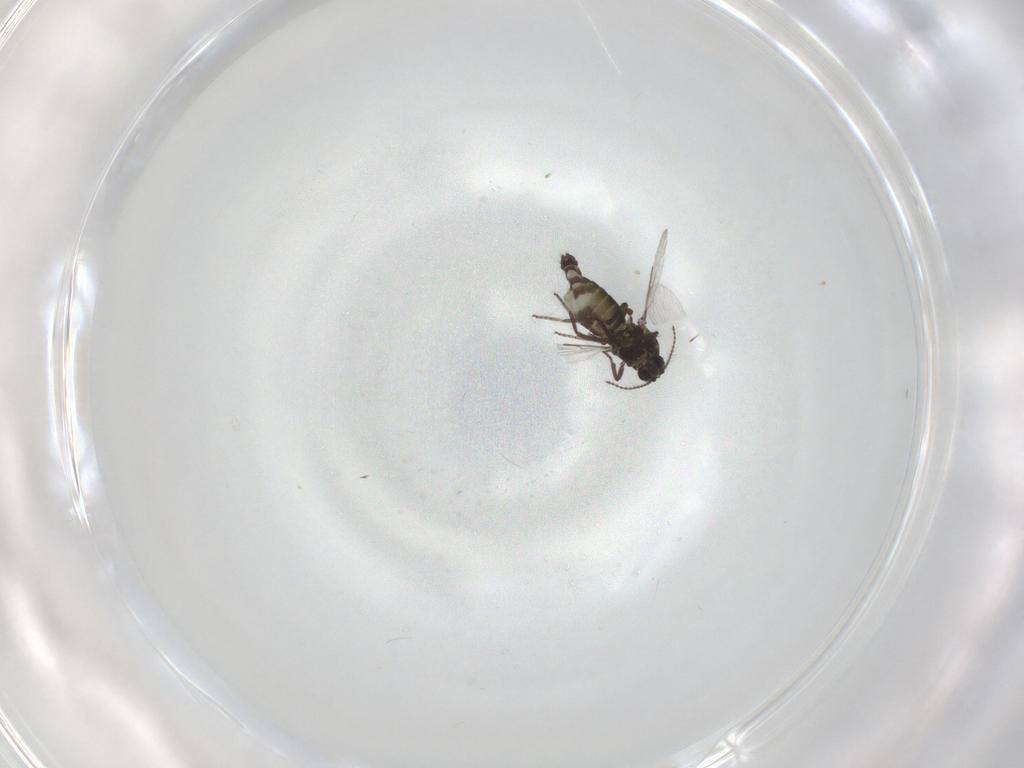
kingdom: Animalia
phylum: Arthropoda
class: Insecta
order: Diptera
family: Ceratopogonidae
